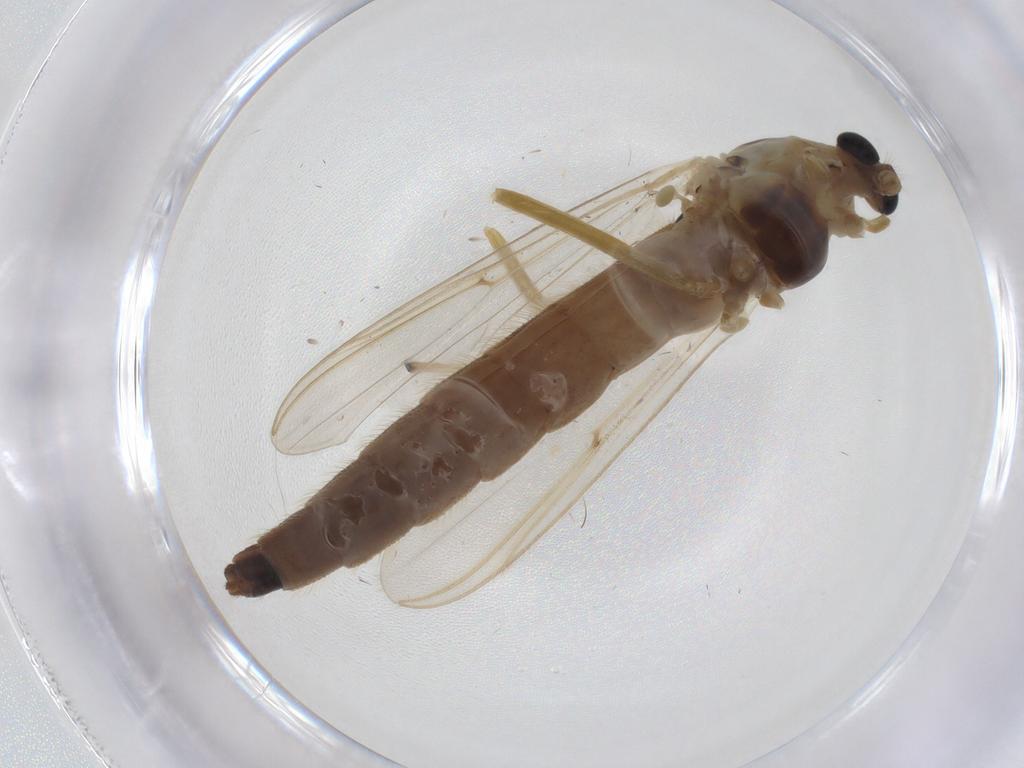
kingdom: Animalia
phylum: Arthropoda
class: Insecta
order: Diptera
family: Chironomidae
